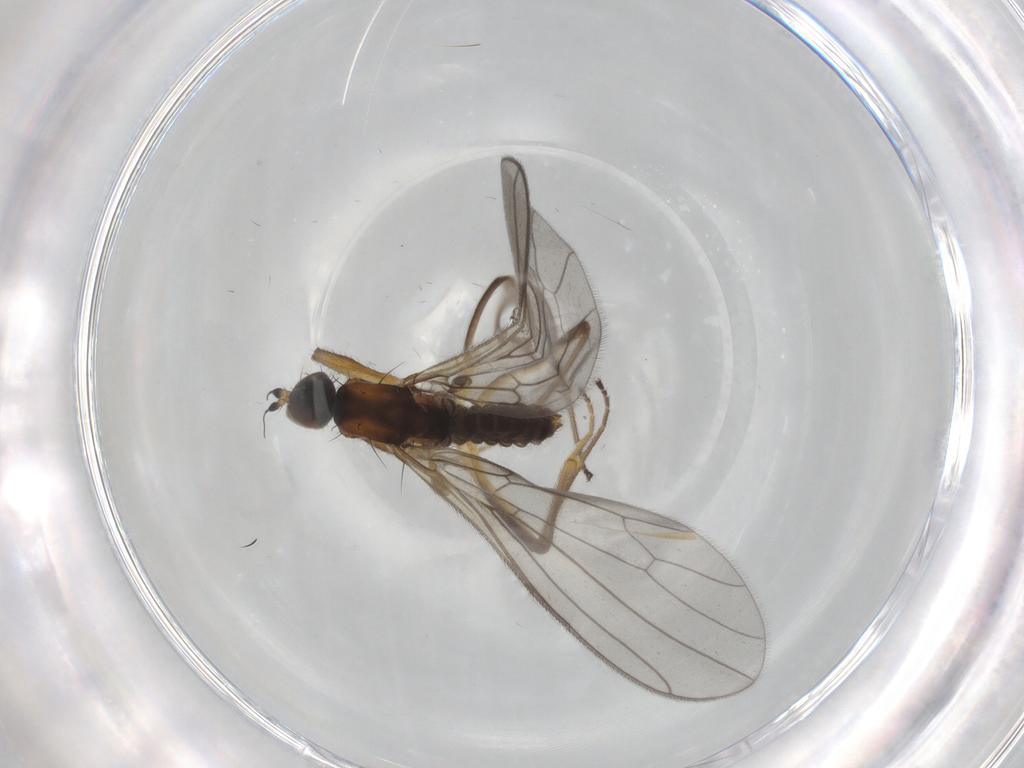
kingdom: Animalia
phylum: Arthropoda
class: Insecta
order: Diptera
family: Empididae
